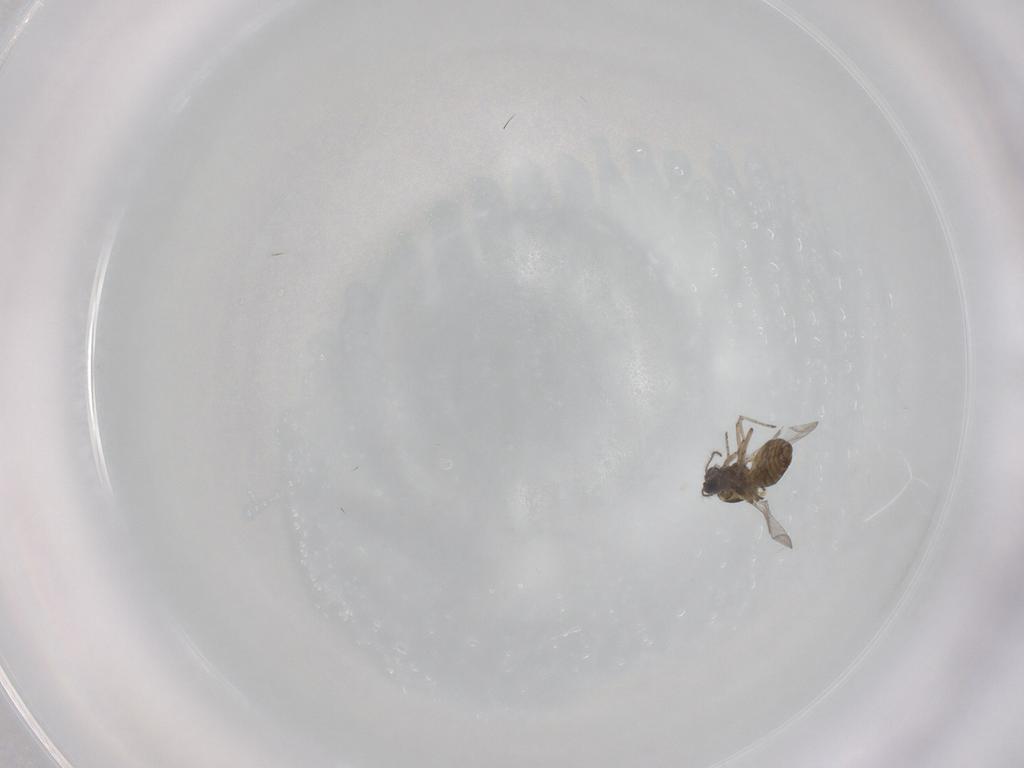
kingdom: Animalia
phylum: Arthropoda
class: Insecta
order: Diptera
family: Ceratopogonidae
